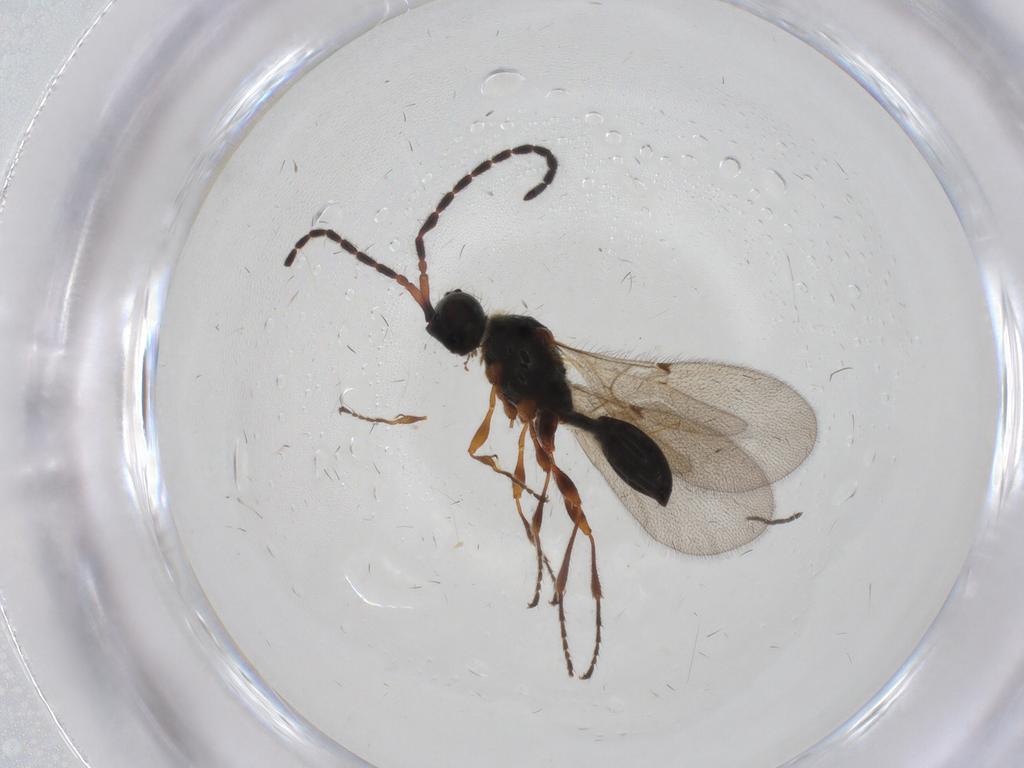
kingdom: Animalia
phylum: Arthropoda
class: Insecta
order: Hymenoptera
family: Diapriidae
